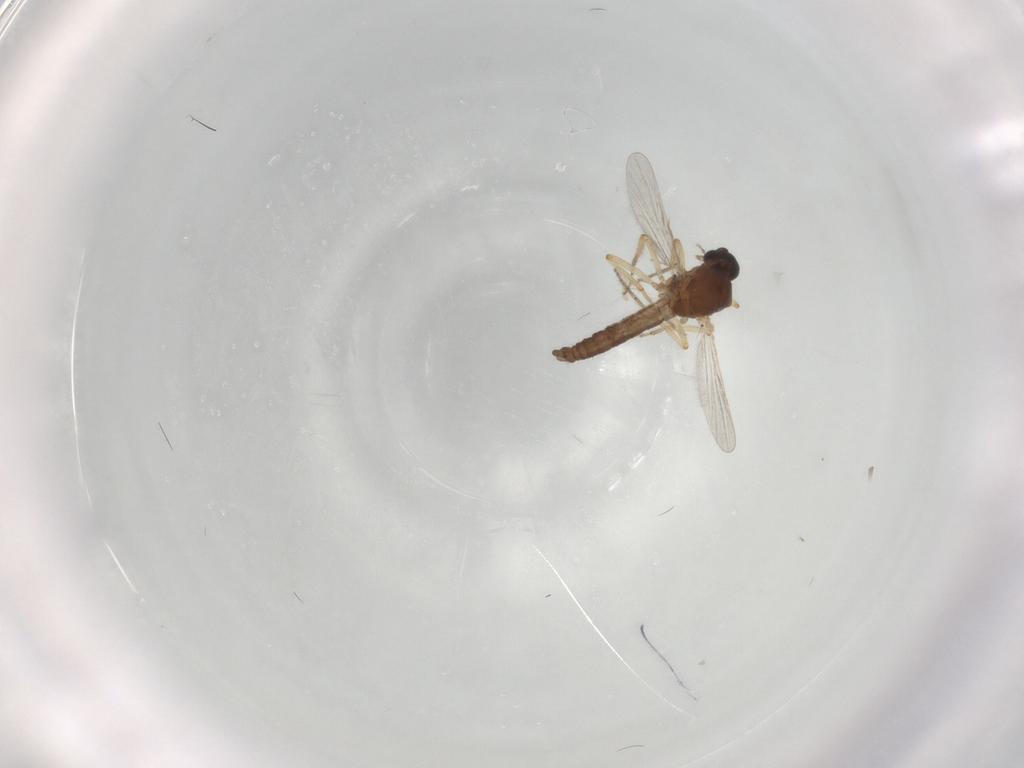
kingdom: Animalia
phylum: Arthropoda
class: Insecta
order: Diptera
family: Ceratopogonidae
